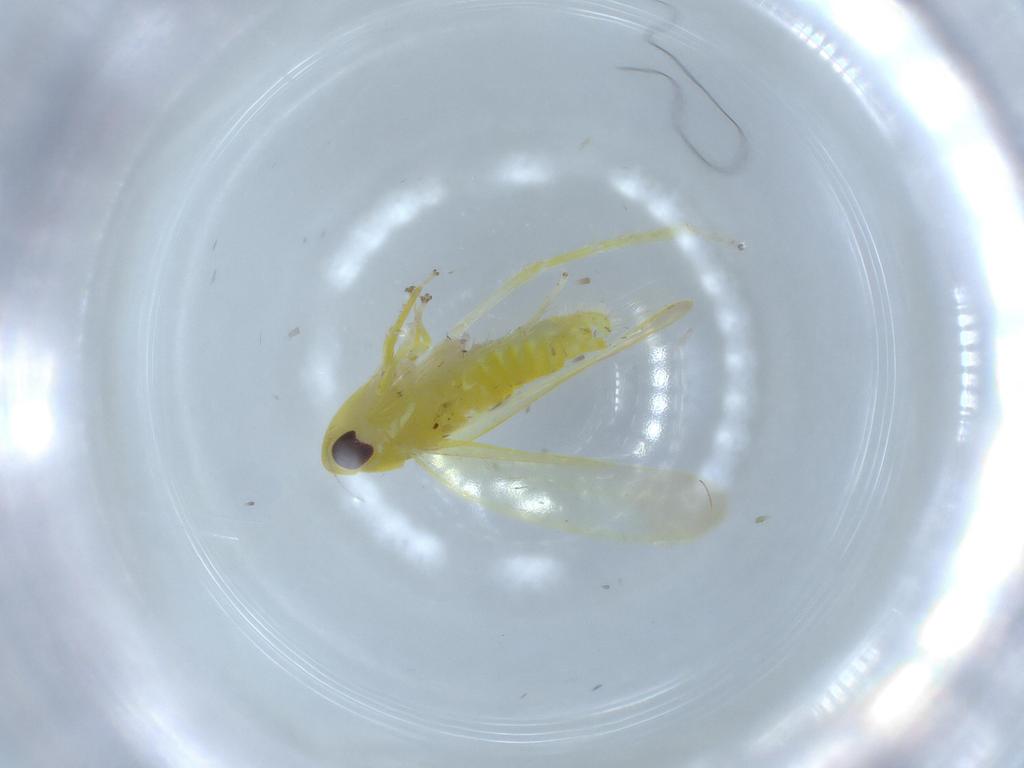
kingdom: Animalia
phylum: Arthropoda
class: Insecta
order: Hemiptera
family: Cicadellidae
